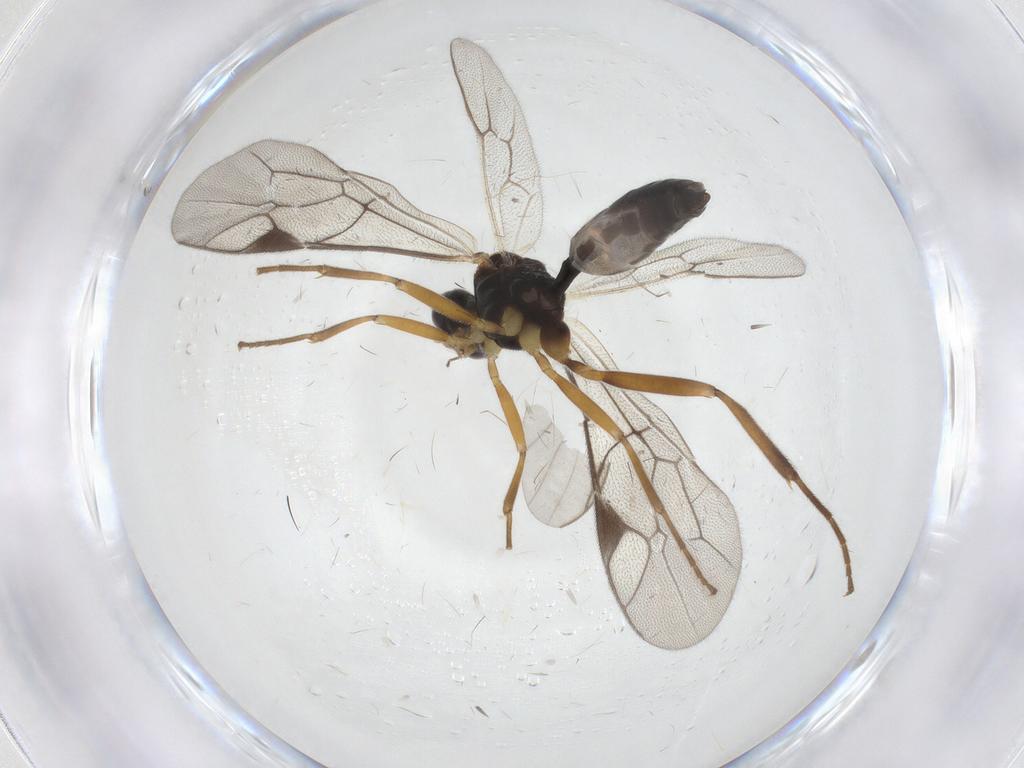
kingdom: Animalia
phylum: Arthropoda
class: Insecta
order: Hymenoptera
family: Ichneumonidae
